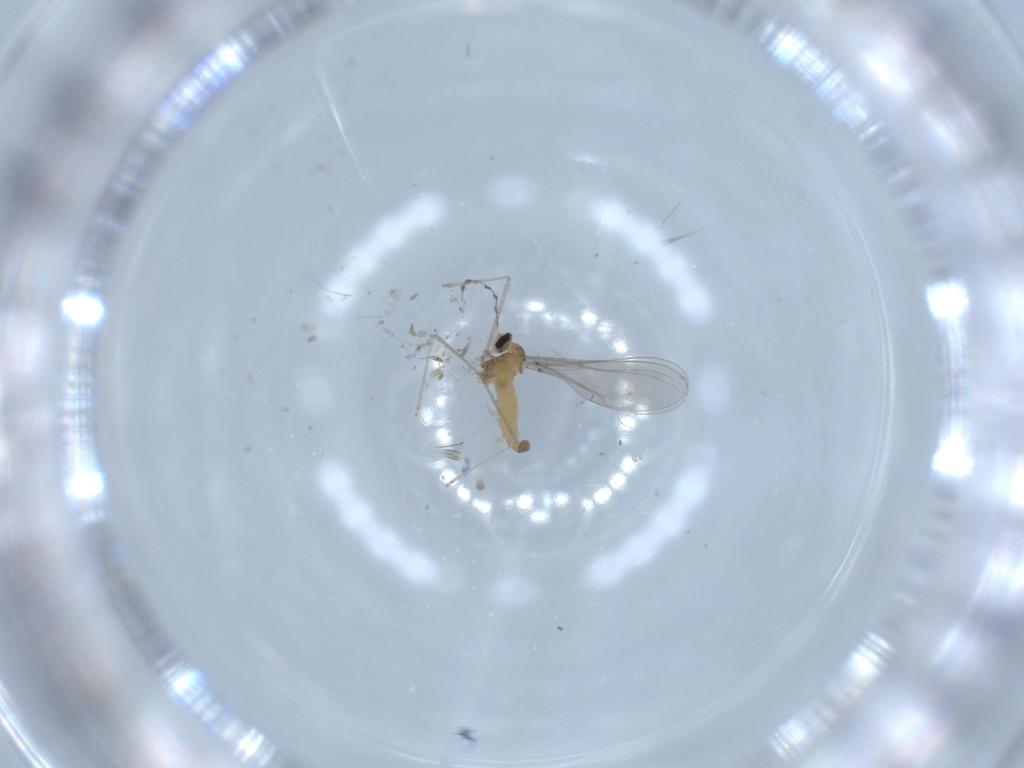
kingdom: Animalia
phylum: Arthropoda
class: Insecta
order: Diptera
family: Cecidomyiidae
